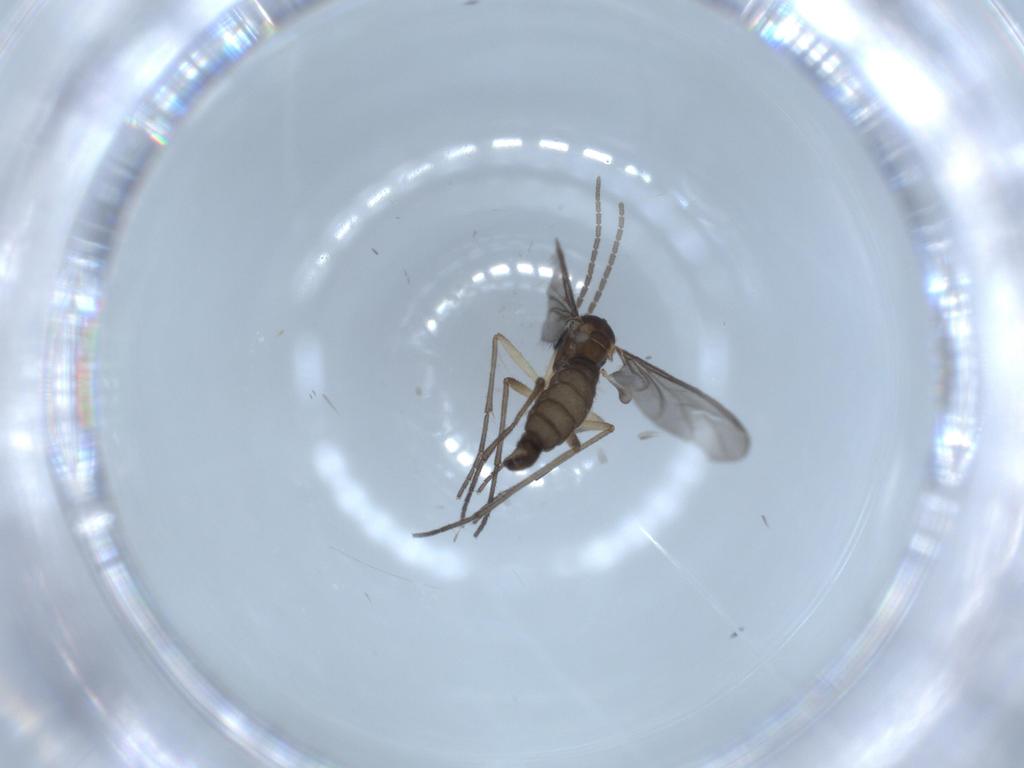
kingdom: Animalia
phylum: Arthropoda
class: Insecta
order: Diptera
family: Sciaridae
